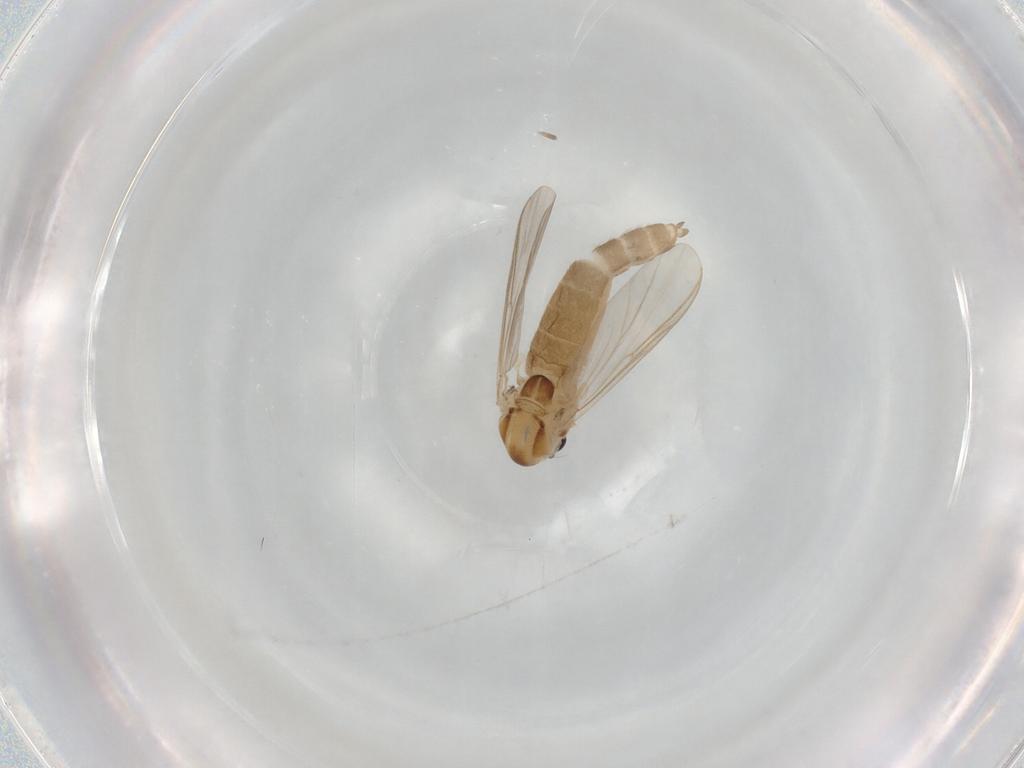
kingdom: Animalia
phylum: Arthropoda
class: Insecta
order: Diptera
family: Chironomidae
